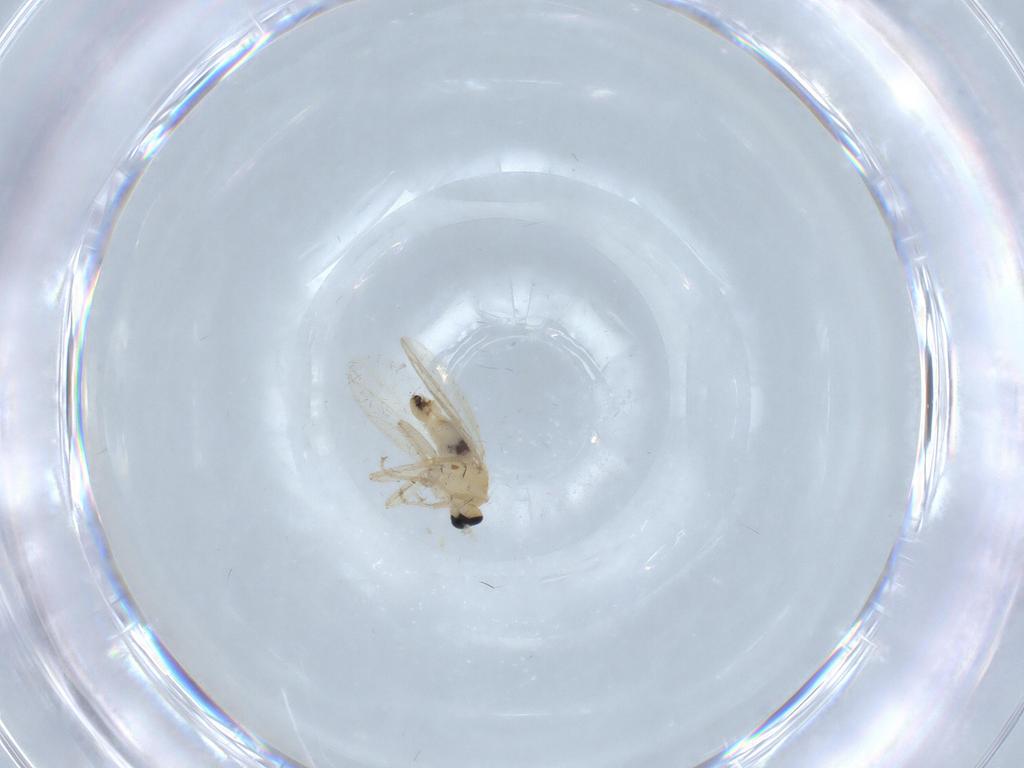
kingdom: Animalia
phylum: Arthropoda
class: Insecta
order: Diptera
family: Hybotidae
